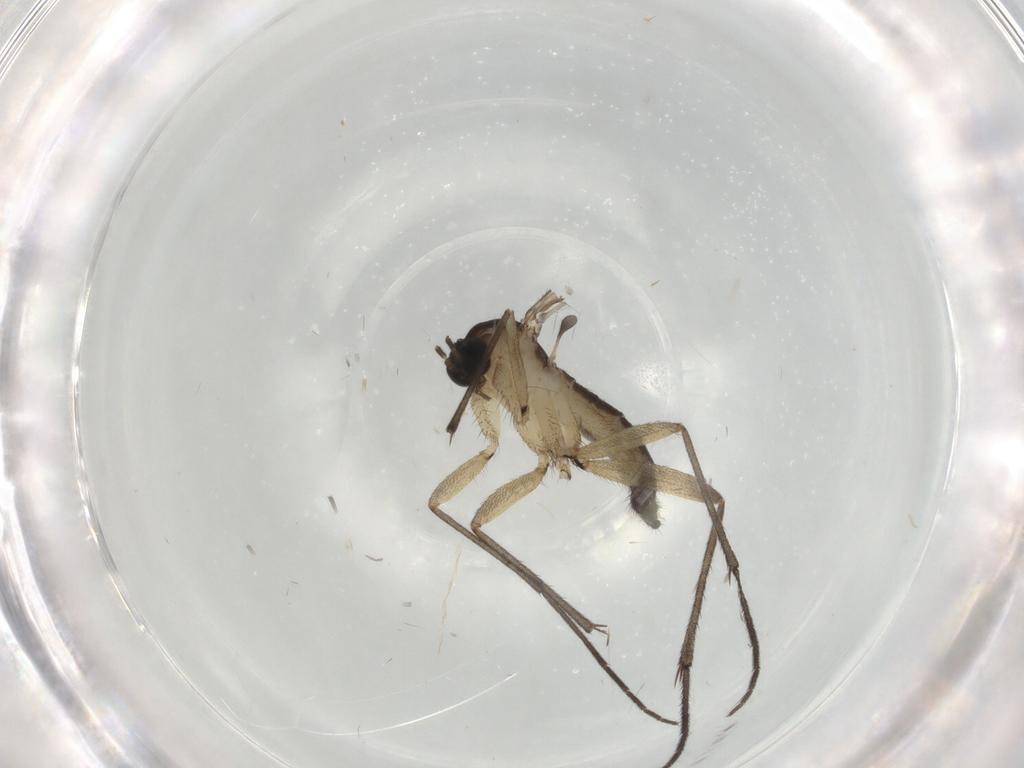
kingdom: Animalia
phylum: Arthropoda
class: Insecta
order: Diptera
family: Sciaridae
